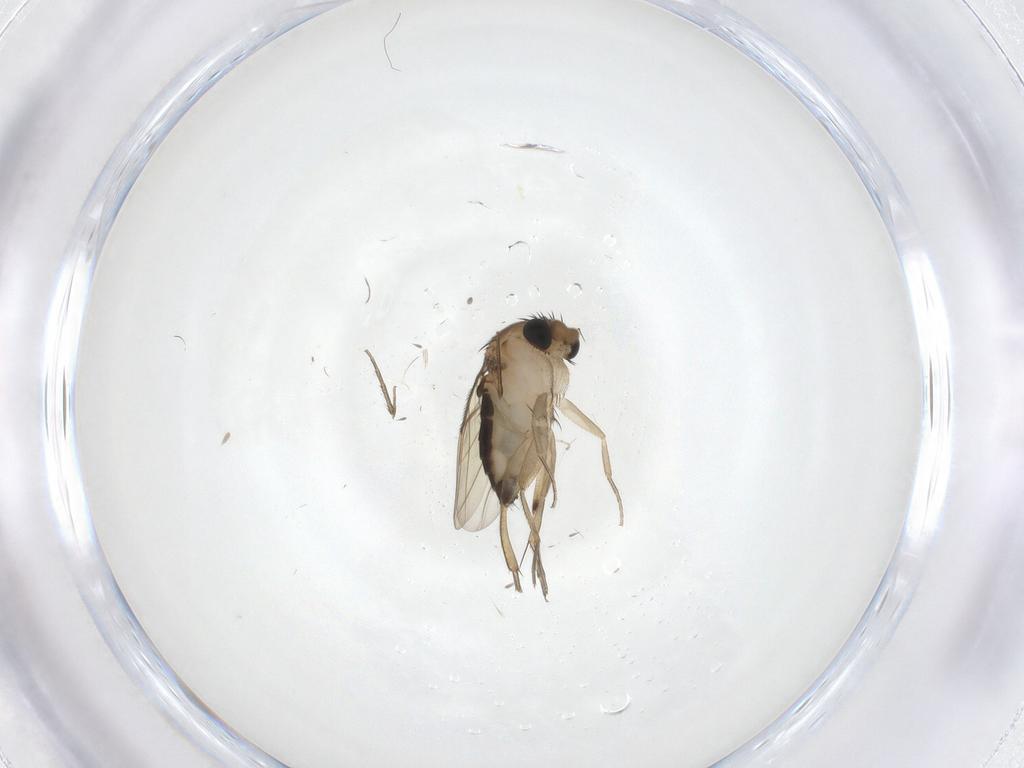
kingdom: Animalia
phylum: Arthropoda
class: Insecta
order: Diptera
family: Phoridae
